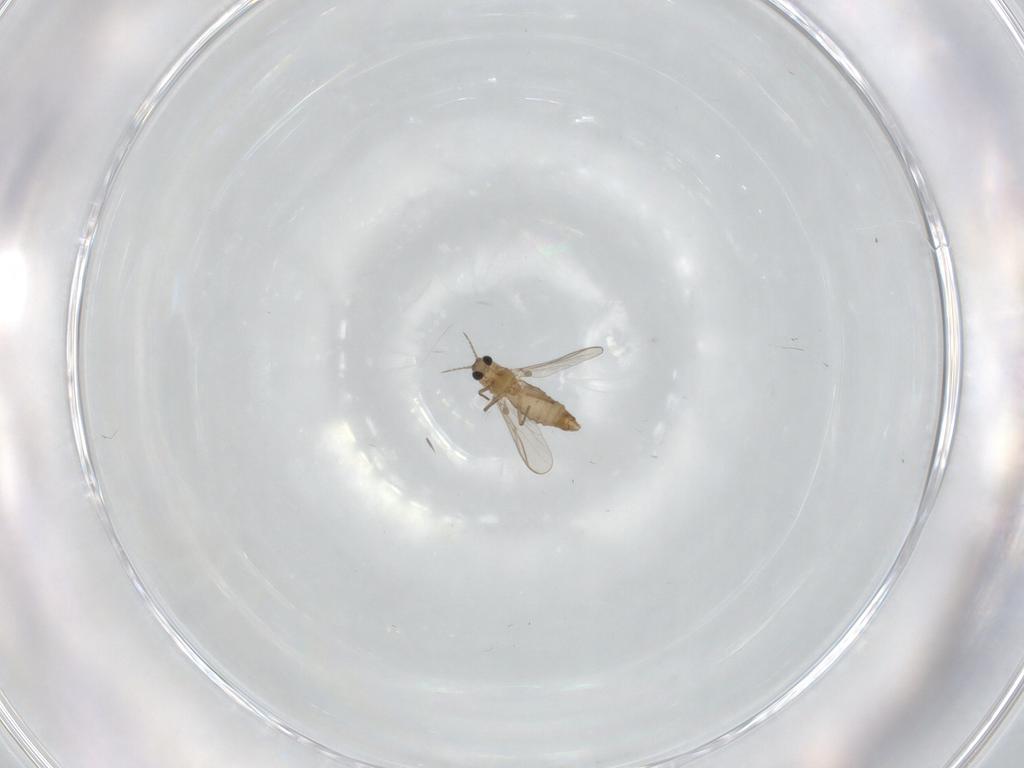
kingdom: Animalia
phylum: Arthropoda
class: Insecta
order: Diptera
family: Chironomidae
